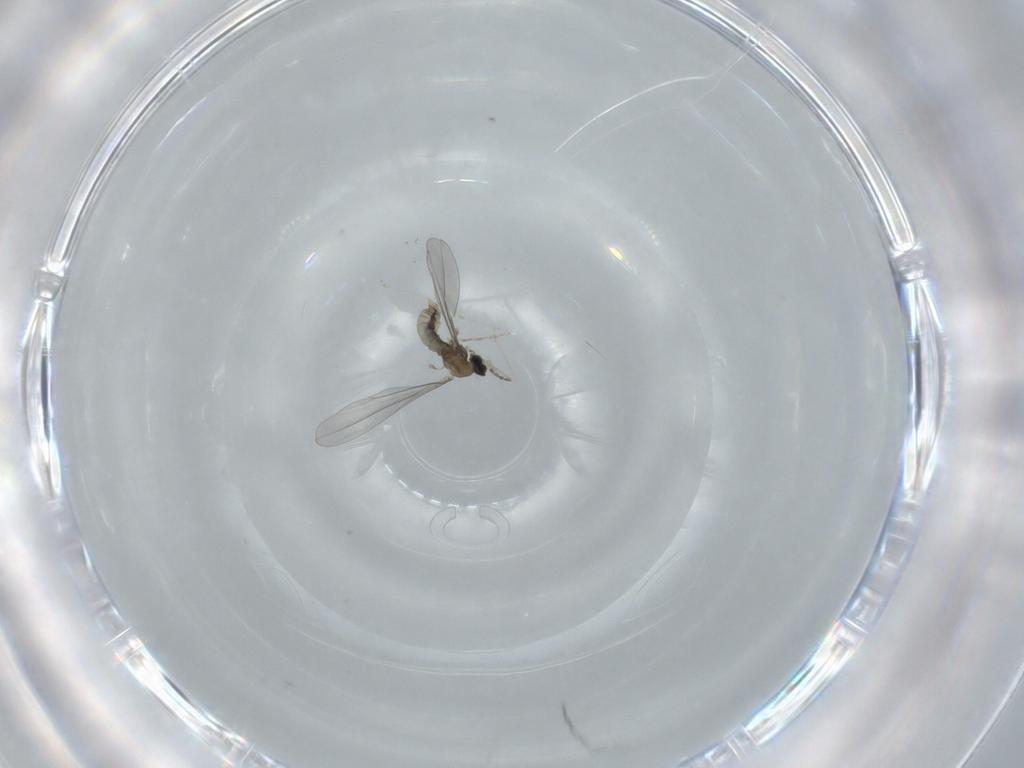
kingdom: Animalia
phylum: Arthropoda
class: Insecta
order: Diptera
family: Cecidomyiidae
